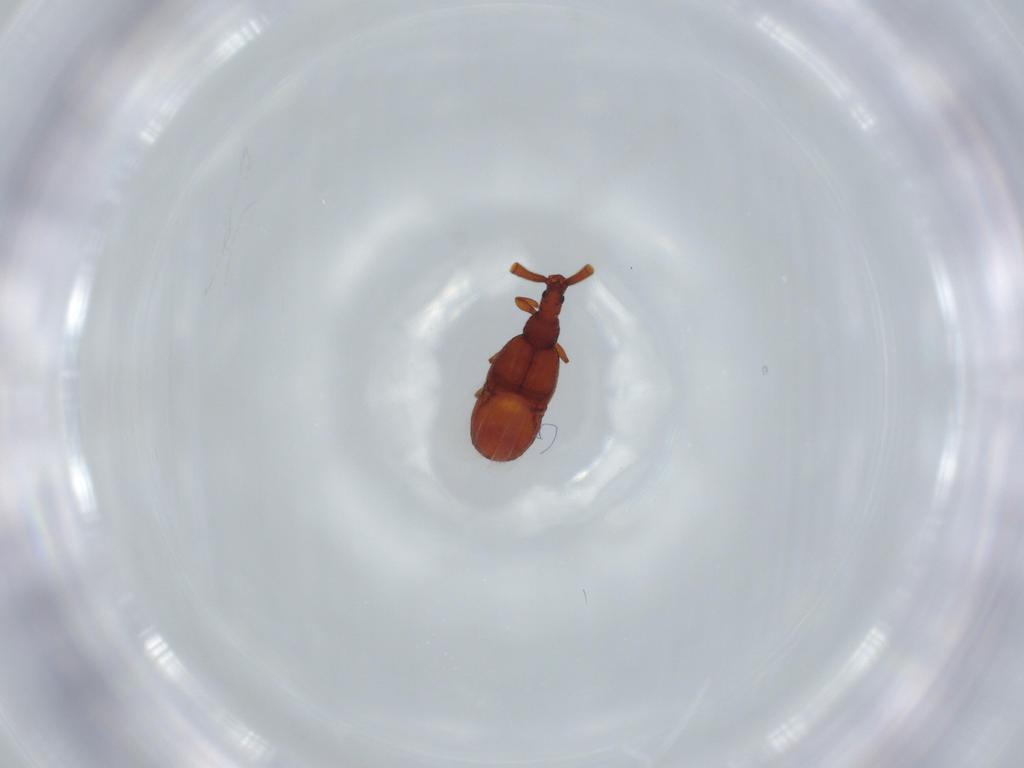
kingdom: Animalia
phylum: Arthropoda
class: Insecta
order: Coleoptera
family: Staphylinidae
